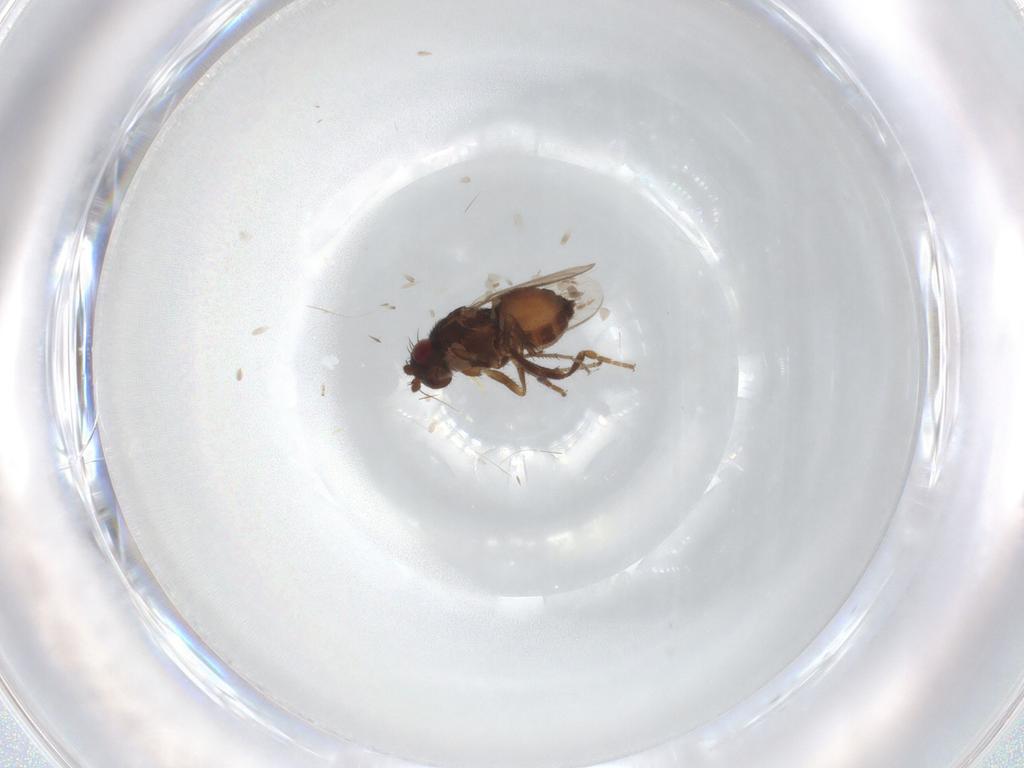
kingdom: Animalia
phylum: Arthropoda
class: Insecta
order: Diptera
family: Sphaeroceridae
